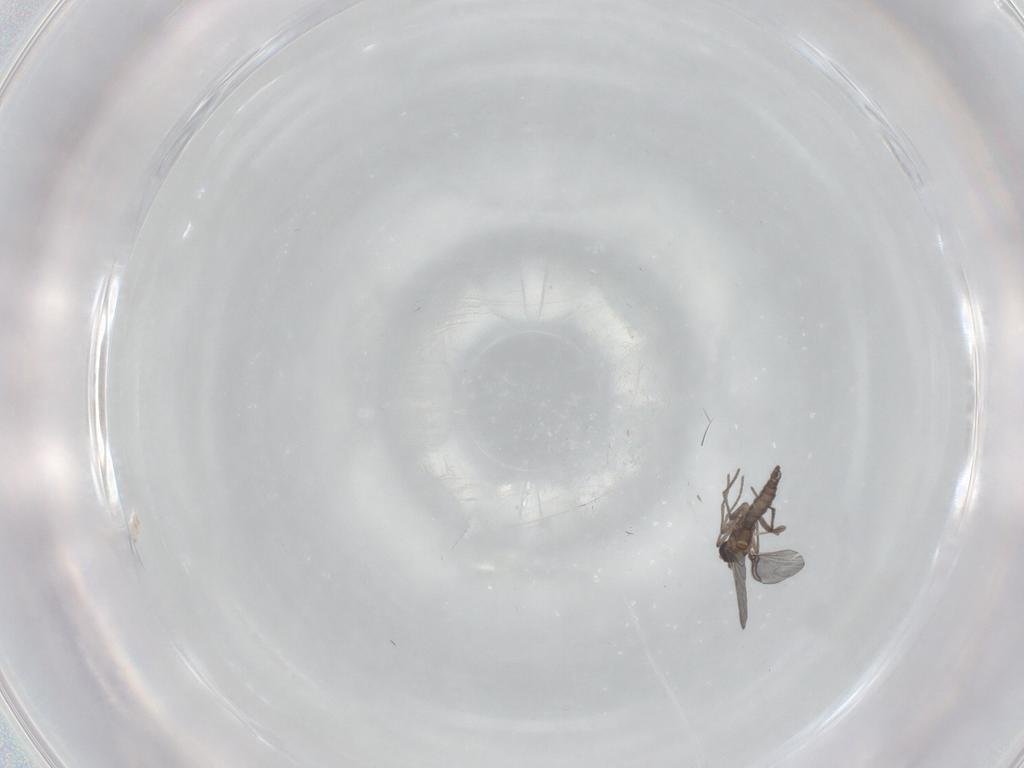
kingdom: Animalia
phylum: Arthropoda
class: Insecta
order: Diptera
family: Sciaridae
